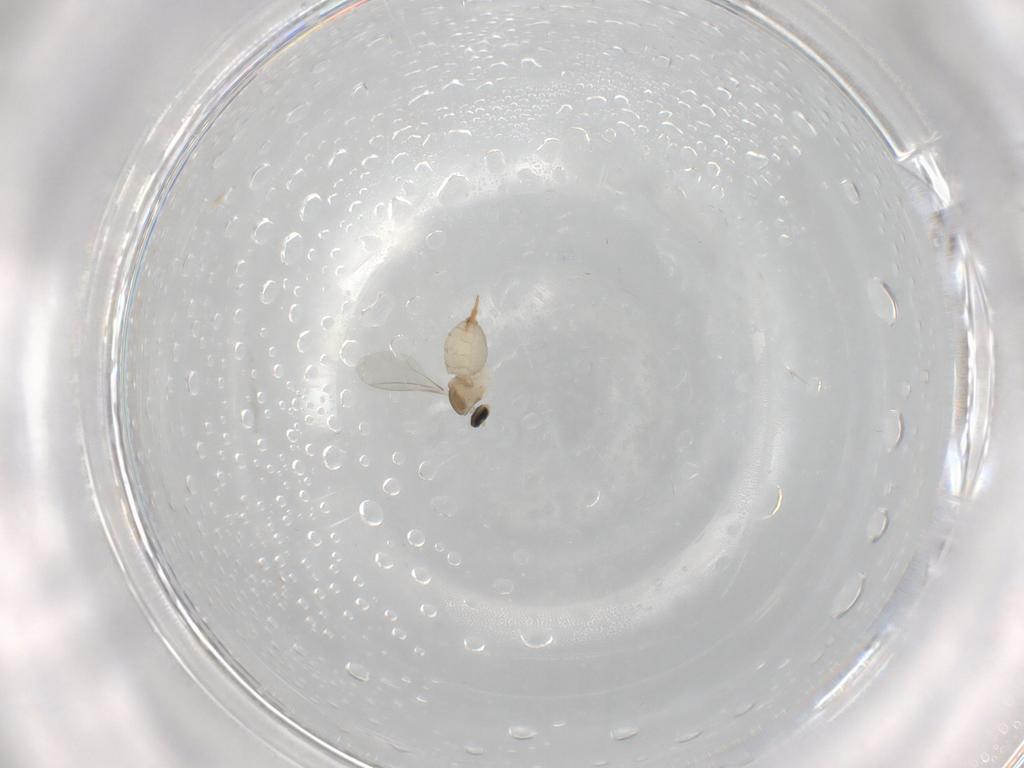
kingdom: Animalia
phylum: Arthropoda
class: Insecta
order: Diptera
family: Cecidomyiidae
